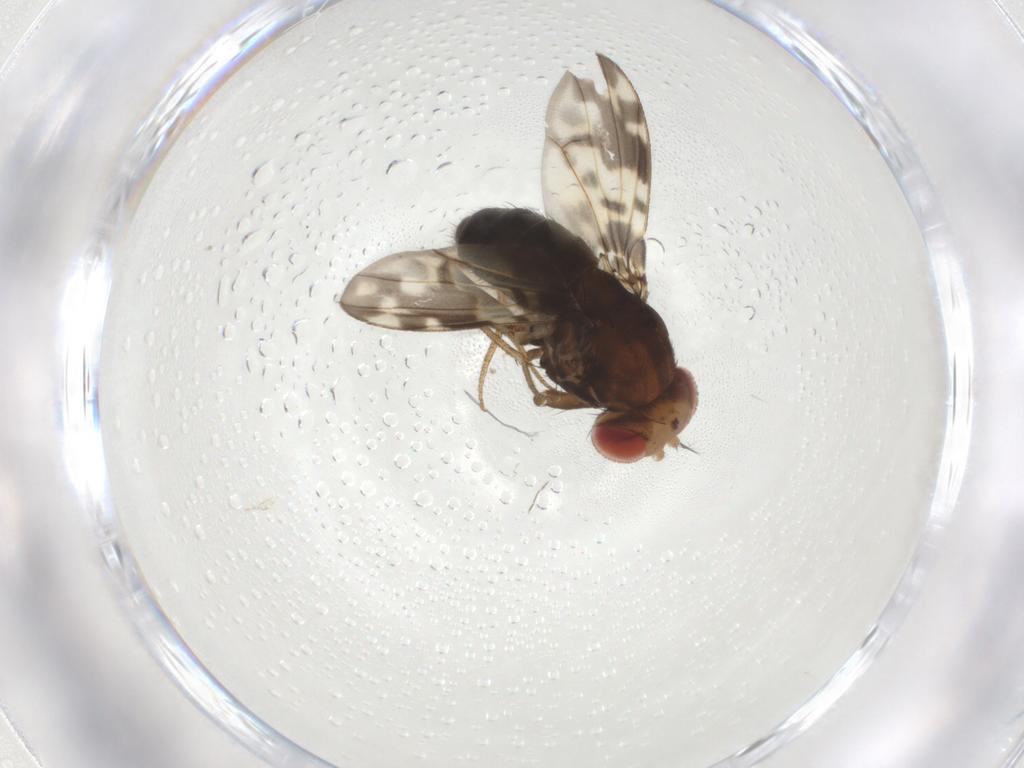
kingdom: Animalia
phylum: Arthropoda
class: Insecta
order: Diptera
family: Drosophilidae
